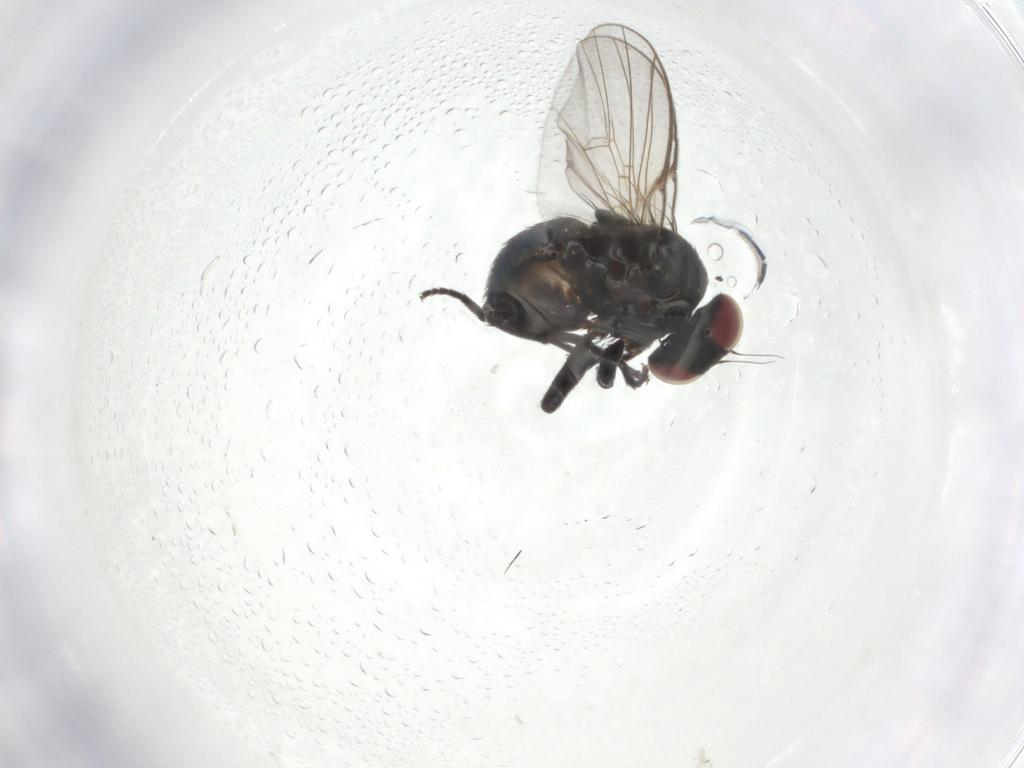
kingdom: Animalia
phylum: Arthropoda
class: Insecta
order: Diptera
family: Agromyzidae
